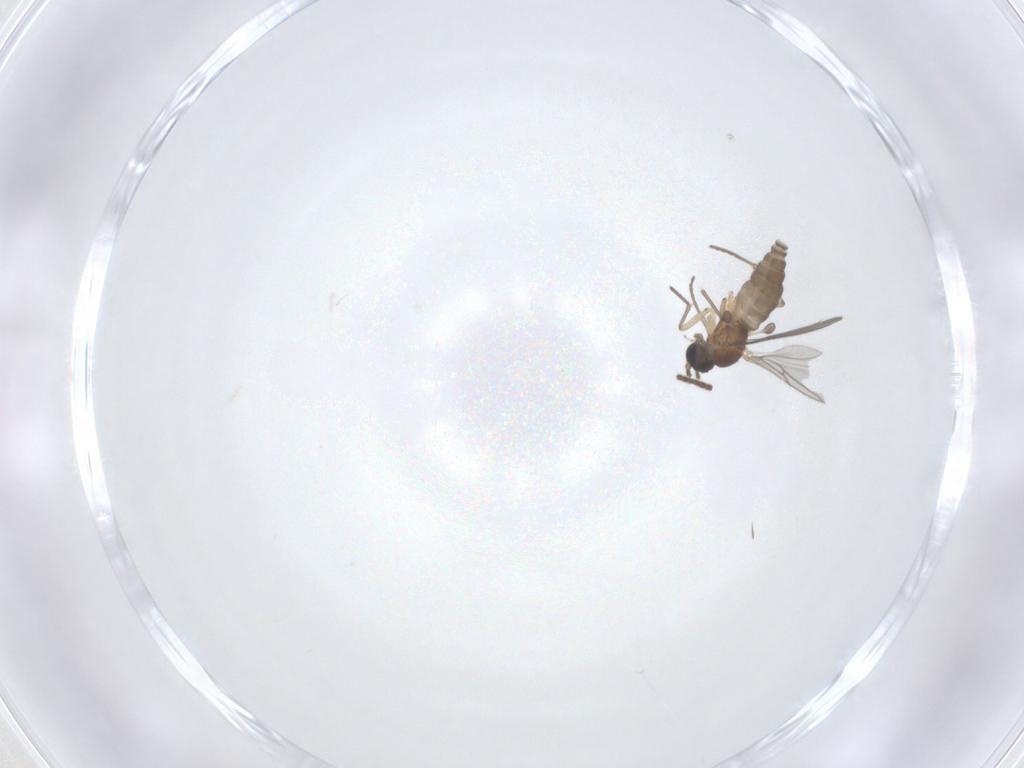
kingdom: Animalia
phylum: Arthropoda
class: Insecta
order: Diptera
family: Sciaridae
